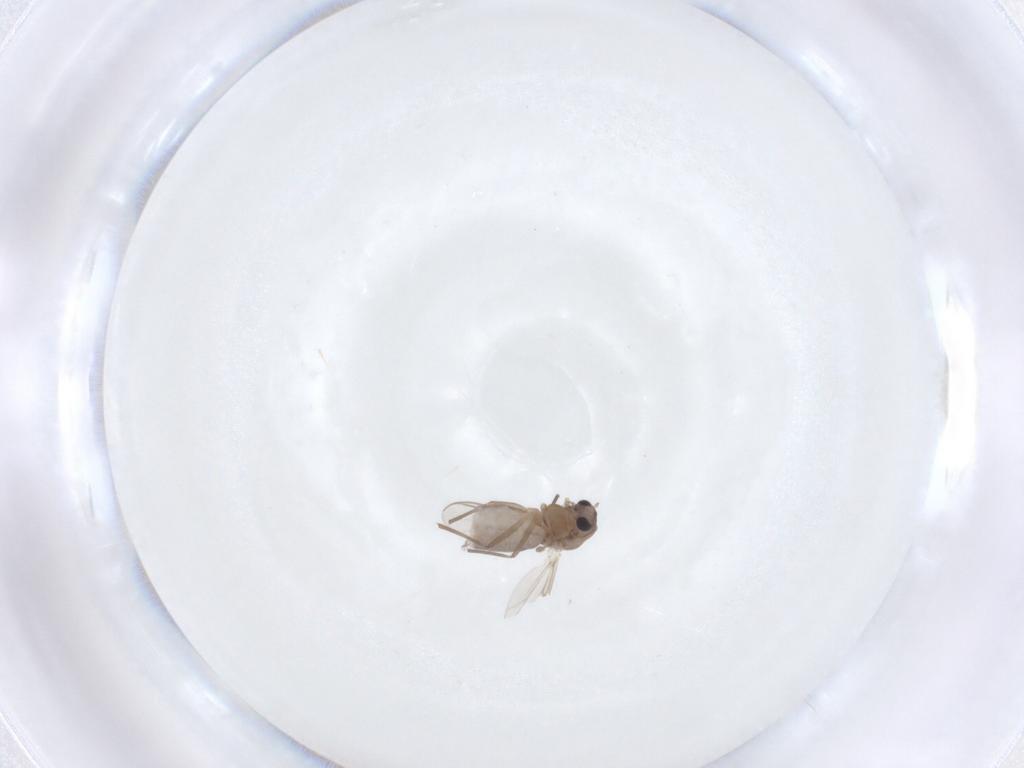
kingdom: Animalia
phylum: Arthropoda
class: Insecta
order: Diptera
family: Chironomidae
